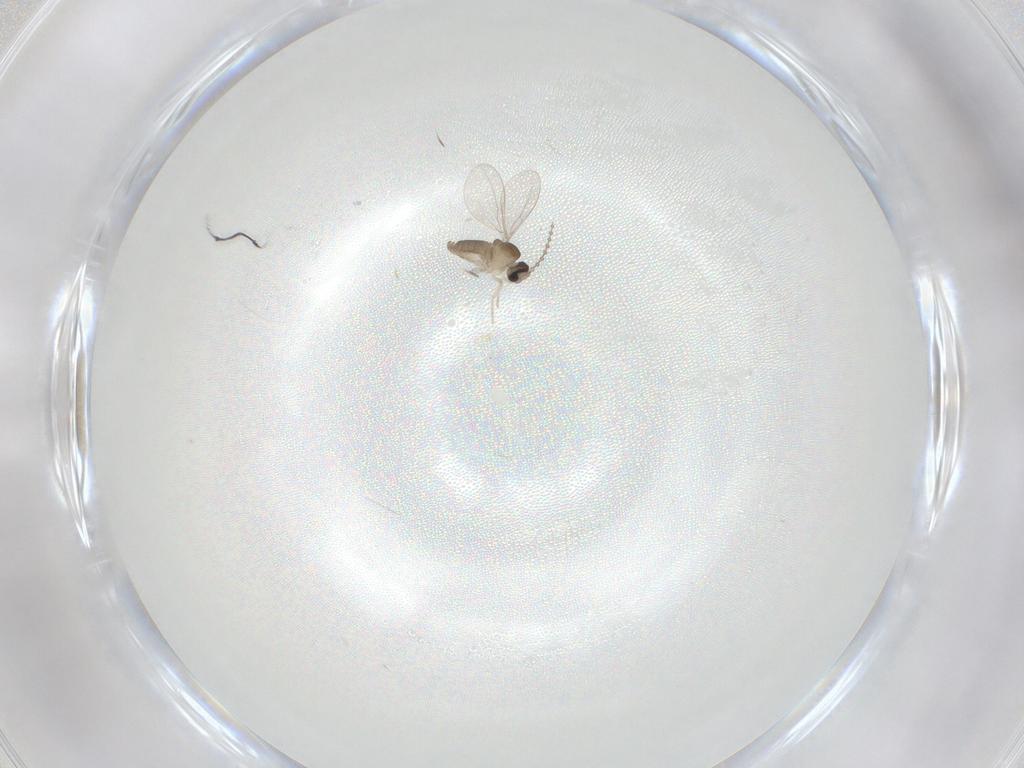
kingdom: Animalia
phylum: Arthropoda
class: Insecta
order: Diptera
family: Cecidomyiidae
